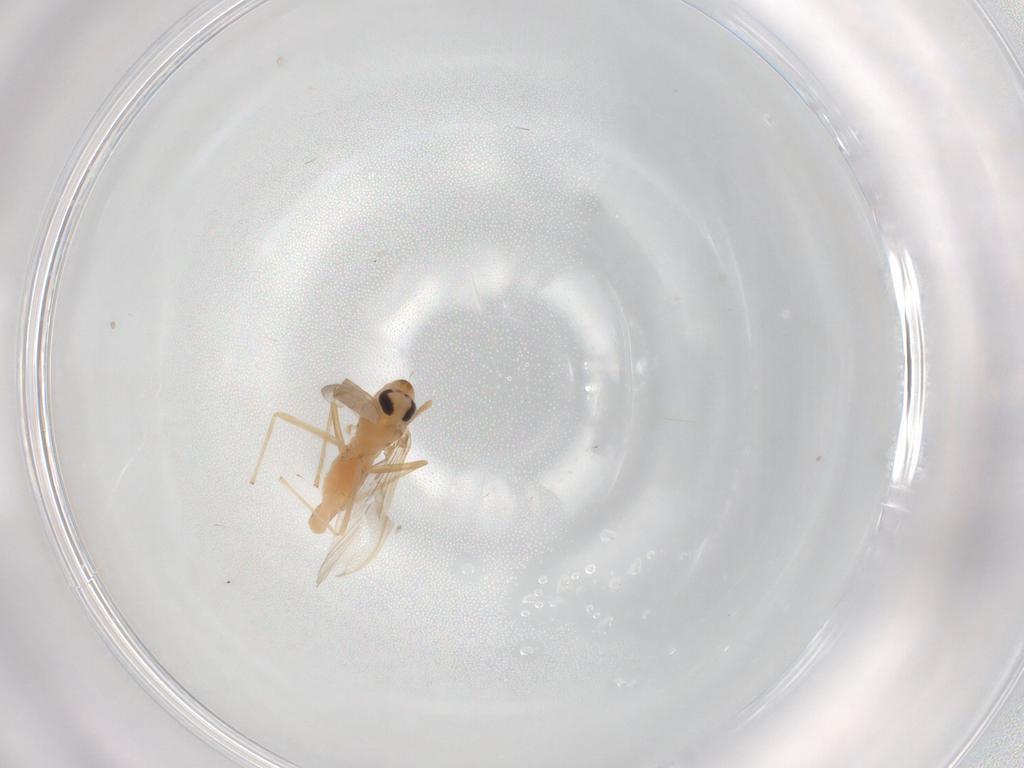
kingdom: Animalia
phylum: Arthropoda
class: Insecta
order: Diptera
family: Chironomidae
